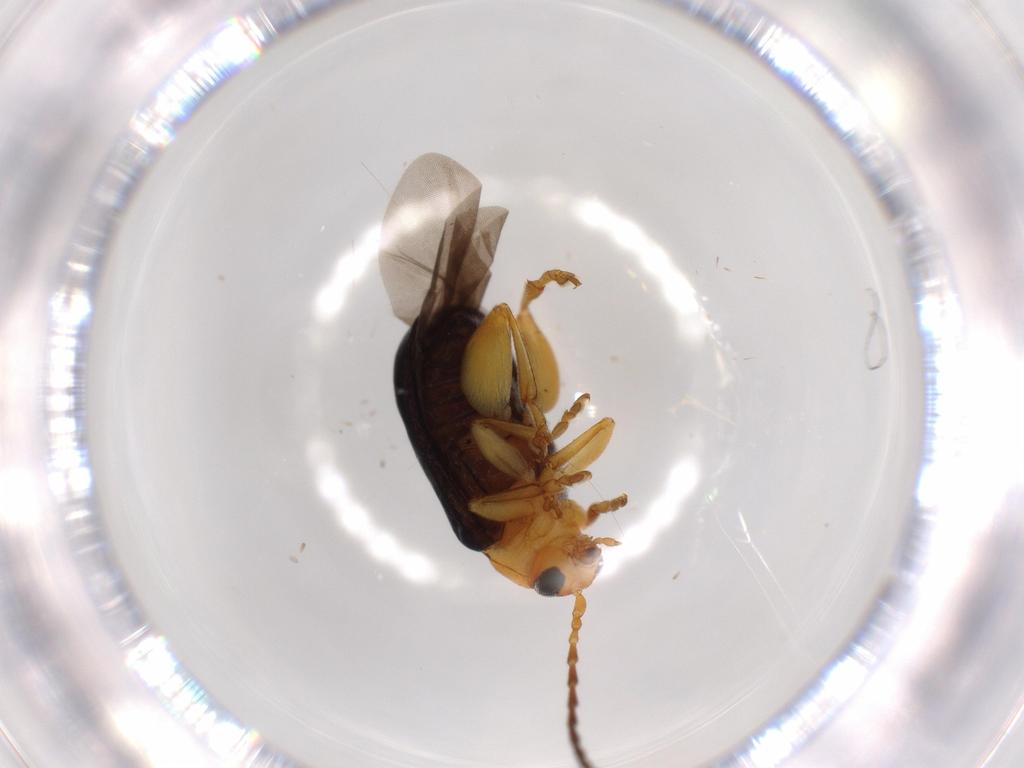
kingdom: Animalia
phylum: Arthropoda
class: Insecta
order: Coleoptera
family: Chrysomelidae
